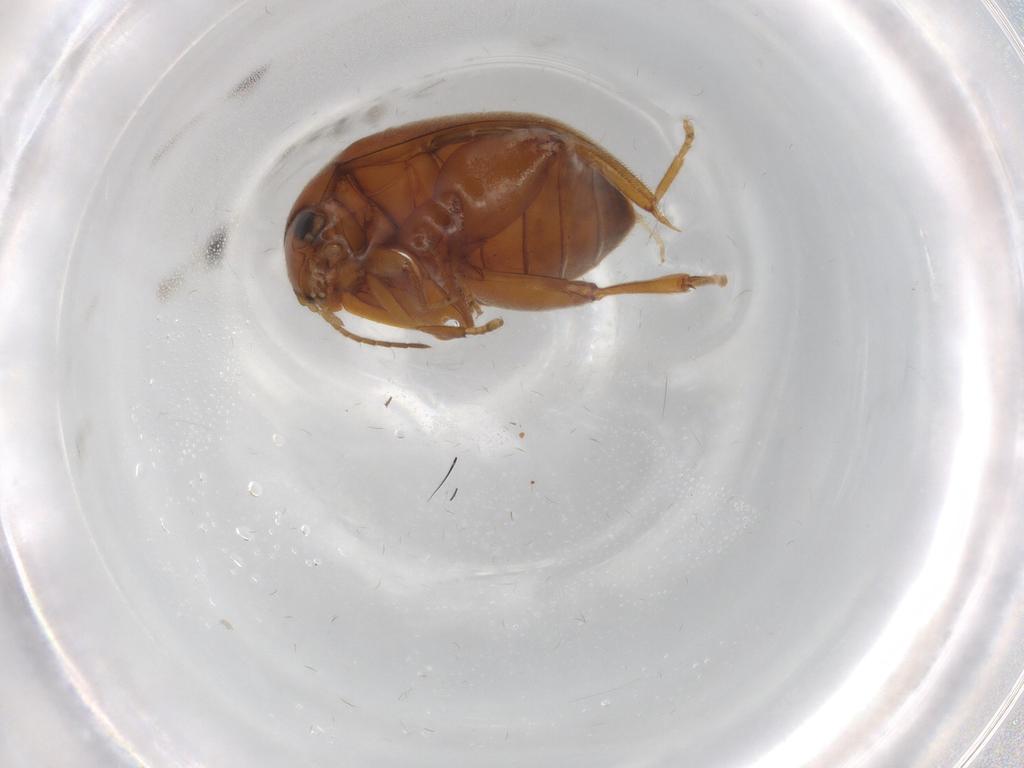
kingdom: Animalia
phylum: Arthropoda
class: Insecta
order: Coleoptera
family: Scirtidae
